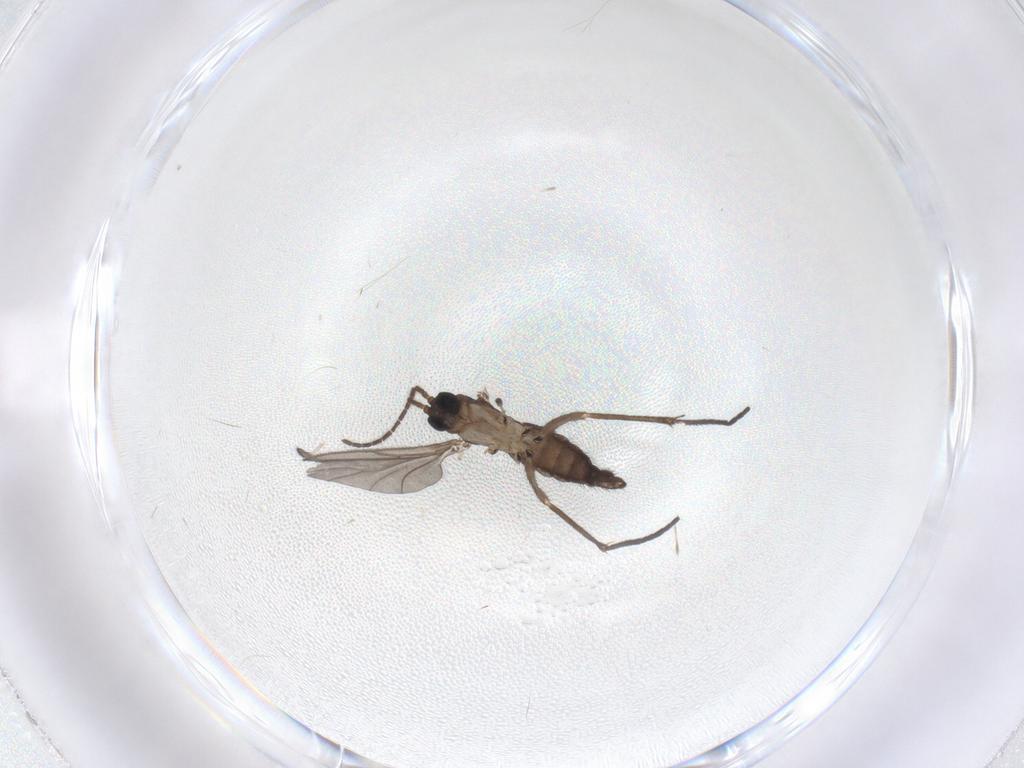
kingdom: Animalia
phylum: Arthropoda
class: Insecta
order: Diptera
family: Sciaridae
